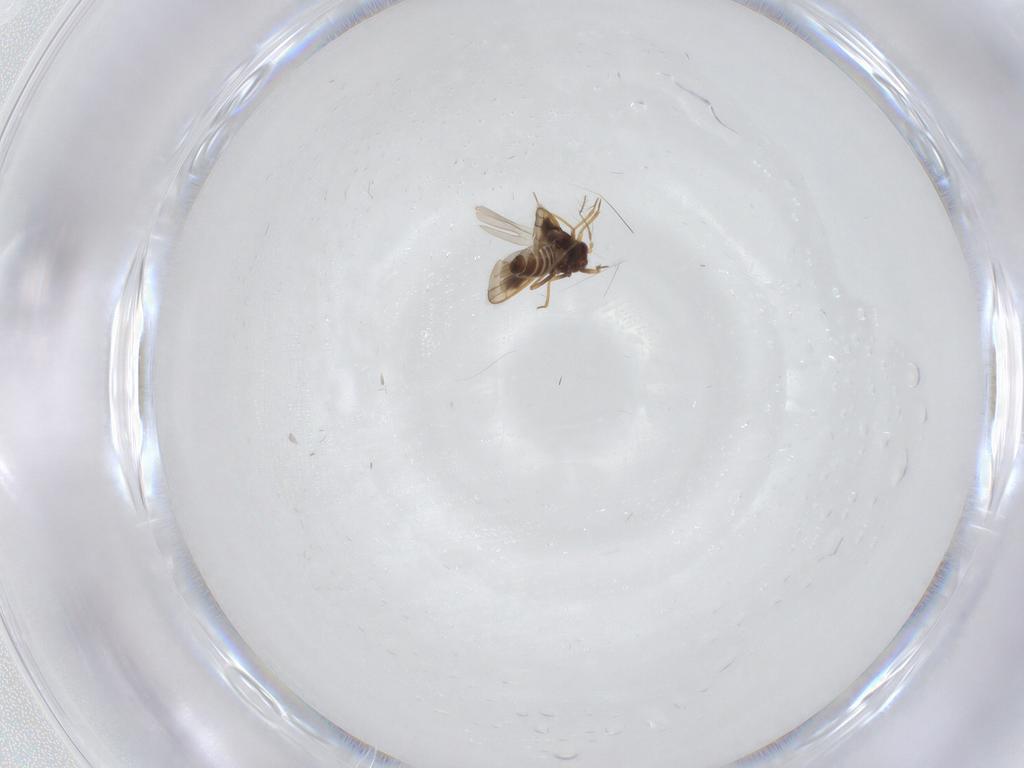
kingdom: Animalia
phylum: Arthropoda
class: Insecta
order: Hemiptera
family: Schizopteridae
